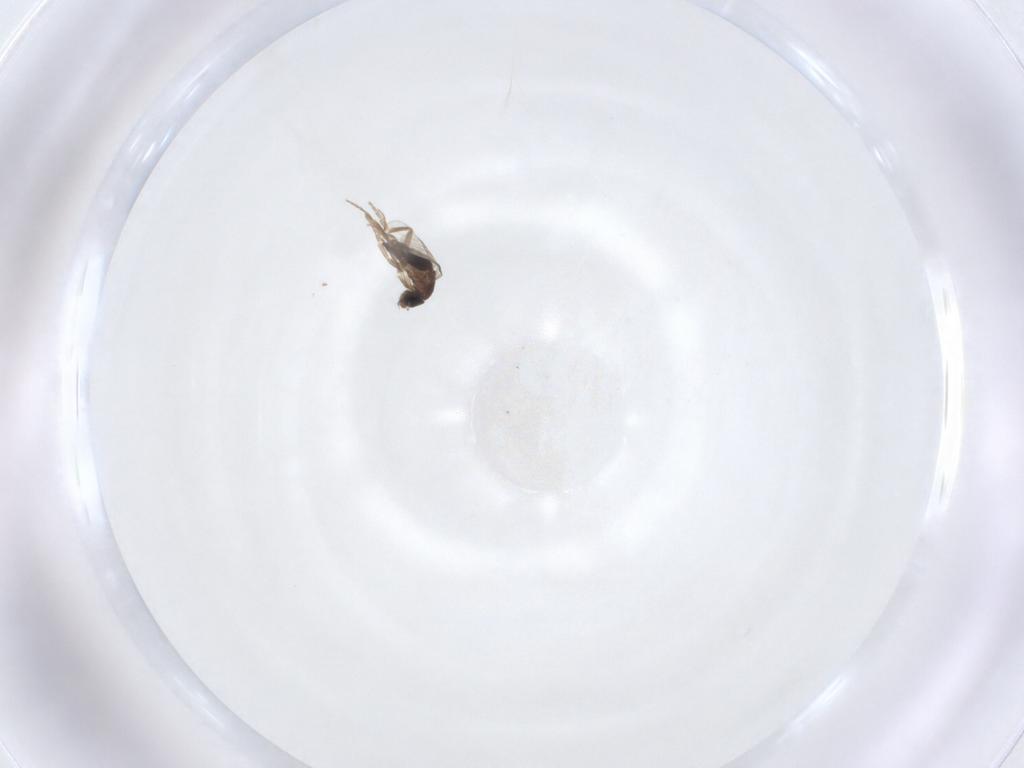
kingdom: Animalia
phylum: Arthropoda
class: Insecta
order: Diptera
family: Phoridae
